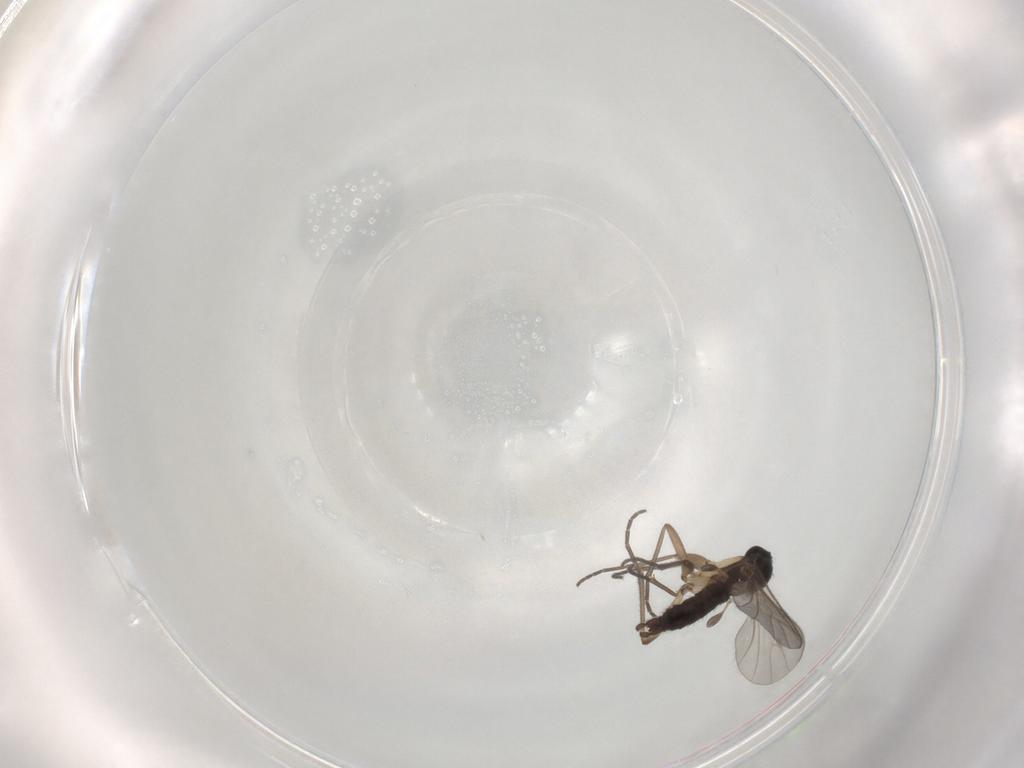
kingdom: Animalia
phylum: Arthropoda
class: Insecta
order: Diptera
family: Sciaridae
